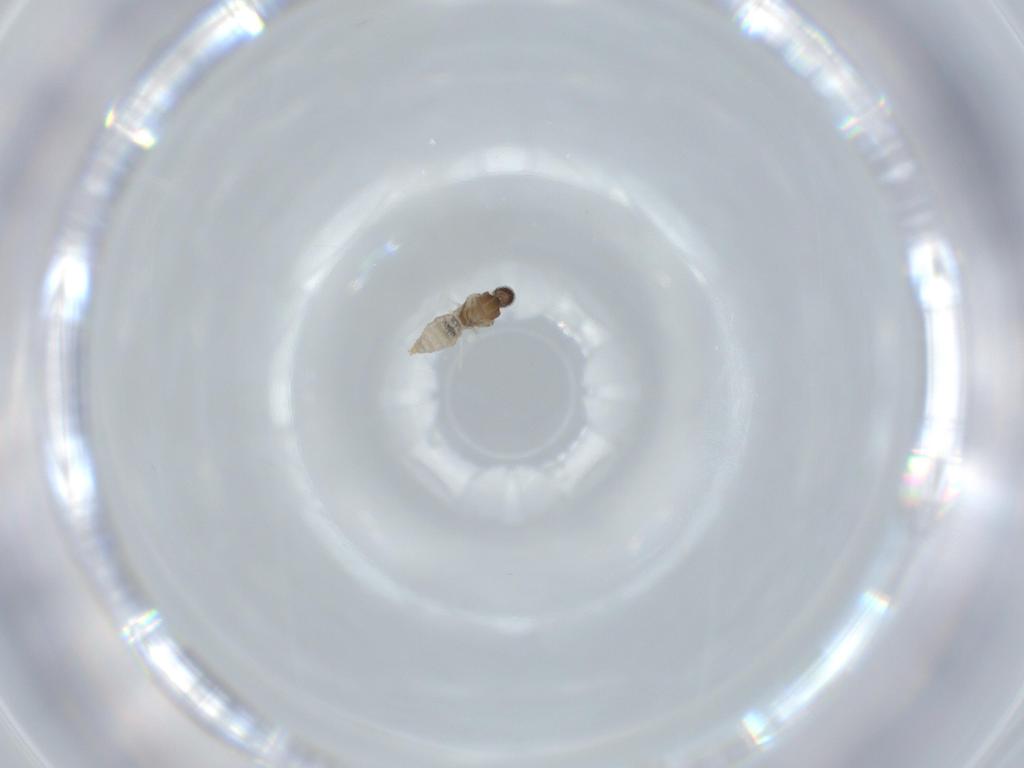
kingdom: Animalia
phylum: Arthropoda
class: Insecta
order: Diptera
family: Cecidomyiidae
